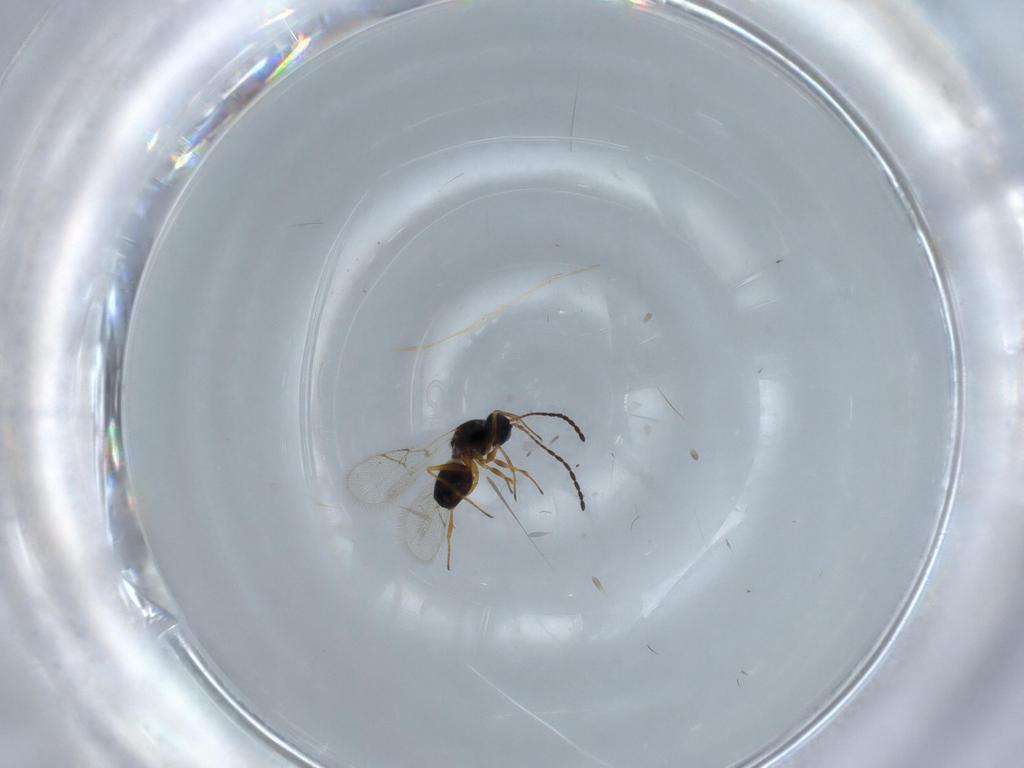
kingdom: Animalia
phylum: Arthropoda
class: Insecta
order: Hymenoptera
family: Figitidae
